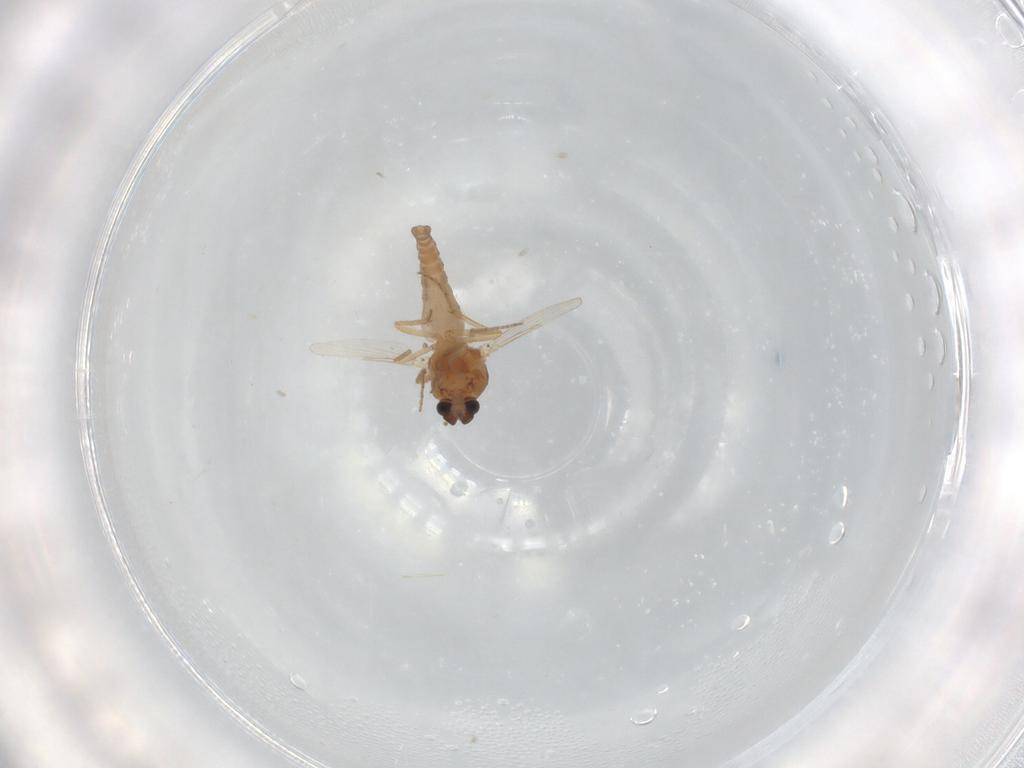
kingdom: Animalia
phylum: Arthropoda
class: Insecta
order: Diptera
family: Ceratopogonidae
